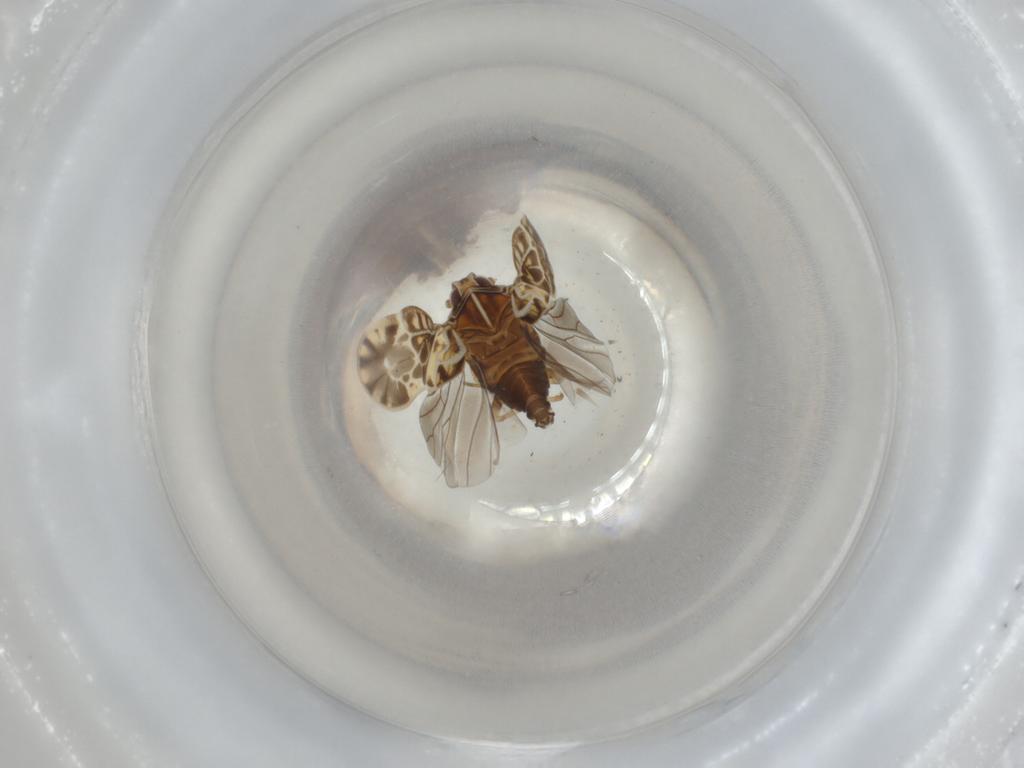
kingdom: Animalia
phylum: Arthropoda
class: Insecta
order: Hemiptera
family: Meenoplidae
